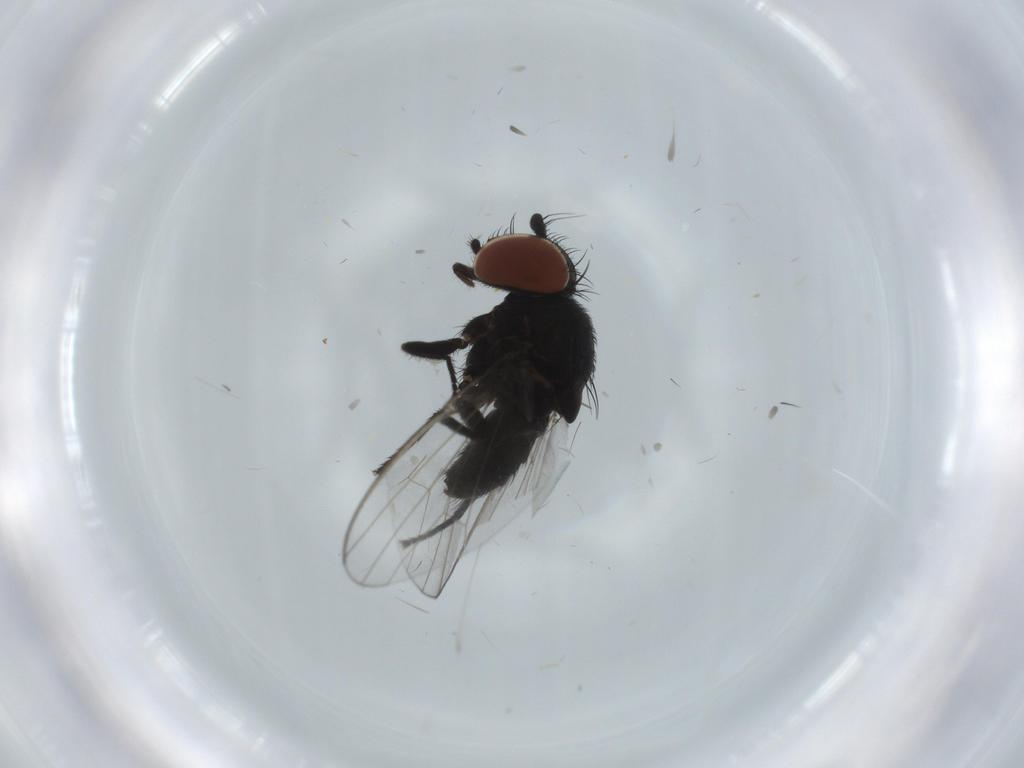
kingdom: Animalia
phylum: Arthropoda
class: Insecta
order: Diptera
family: Milichiidae
